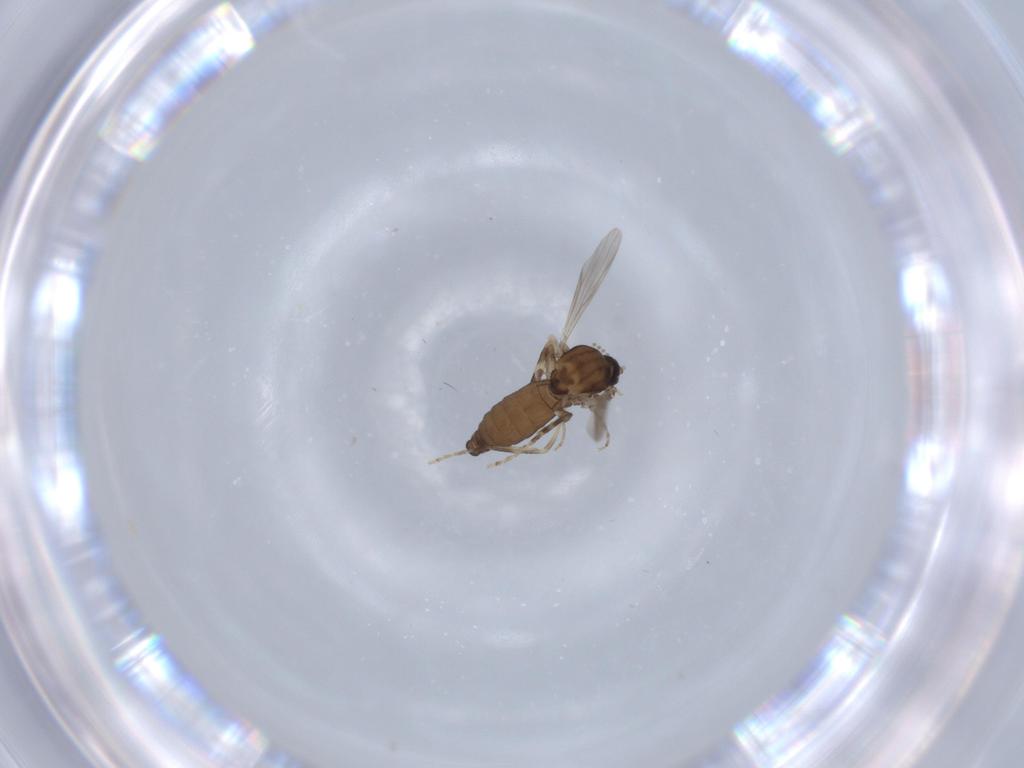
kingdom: Animalia
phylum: Arthropoda
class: Insecta
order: Diptera
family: Ceratopogonidae
